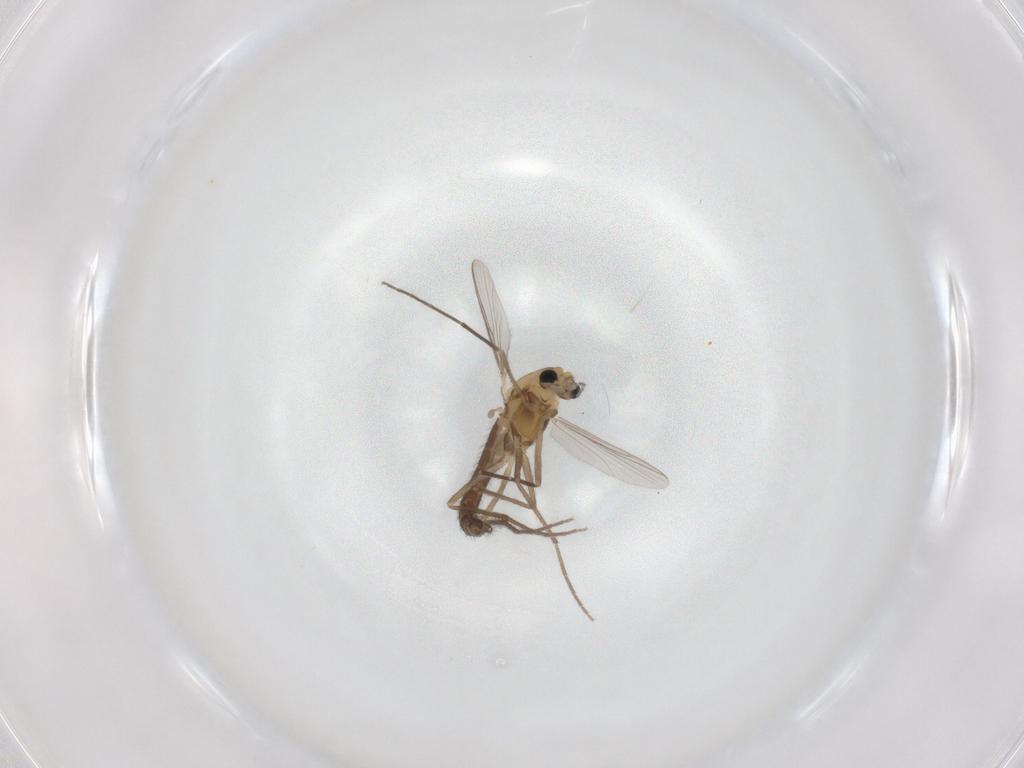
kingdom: Animalia
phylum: Arthropoda
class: Insecta
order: Diptera
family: Chironomidae
